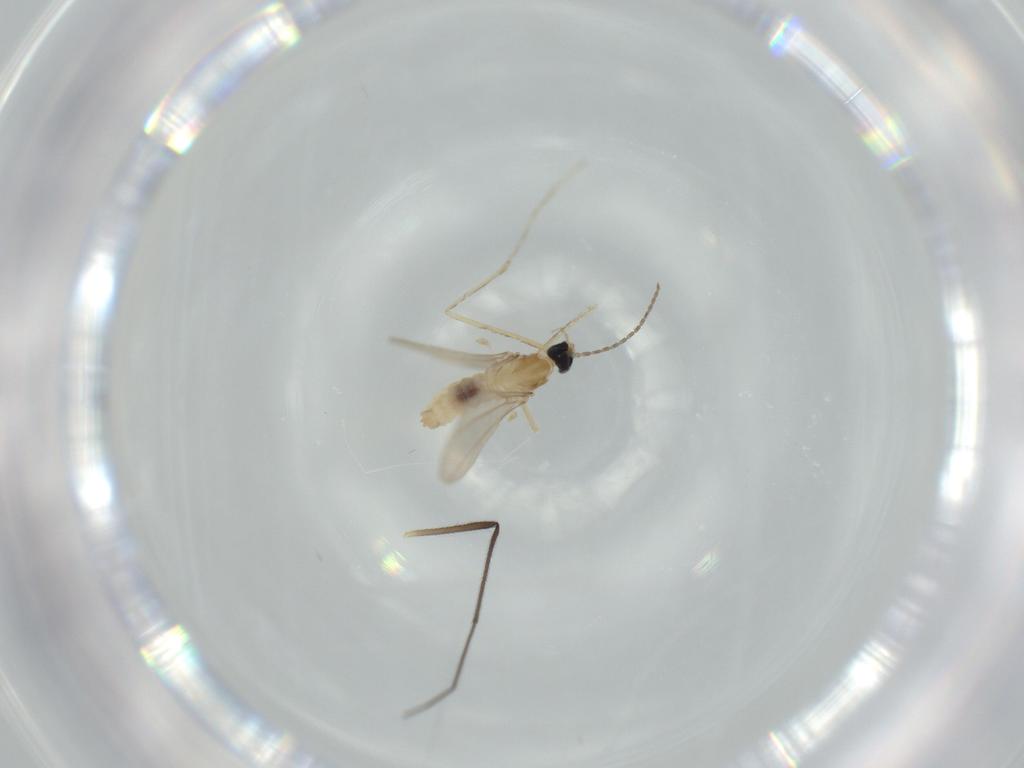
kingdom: Animalia
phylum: Arthropoda
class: Insecta
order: Diptera
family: Cecidomyiidae
